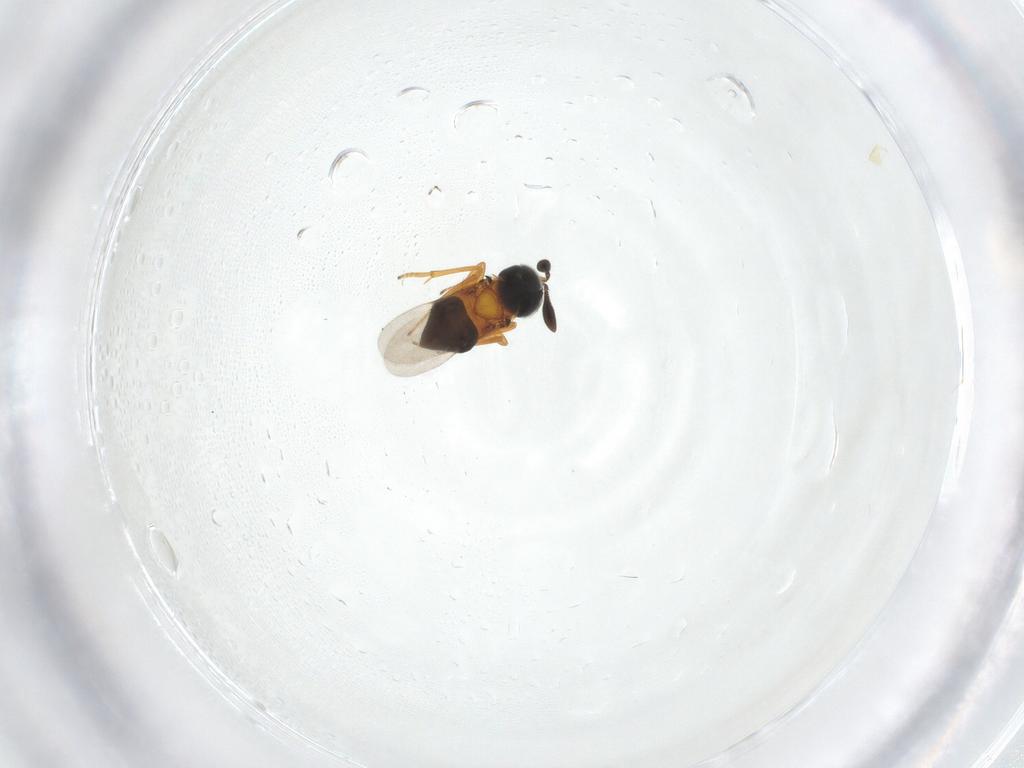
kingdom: Animalia
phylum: Arthropoda
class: Insecta
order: Hymenoptera
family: Encyrtidae
